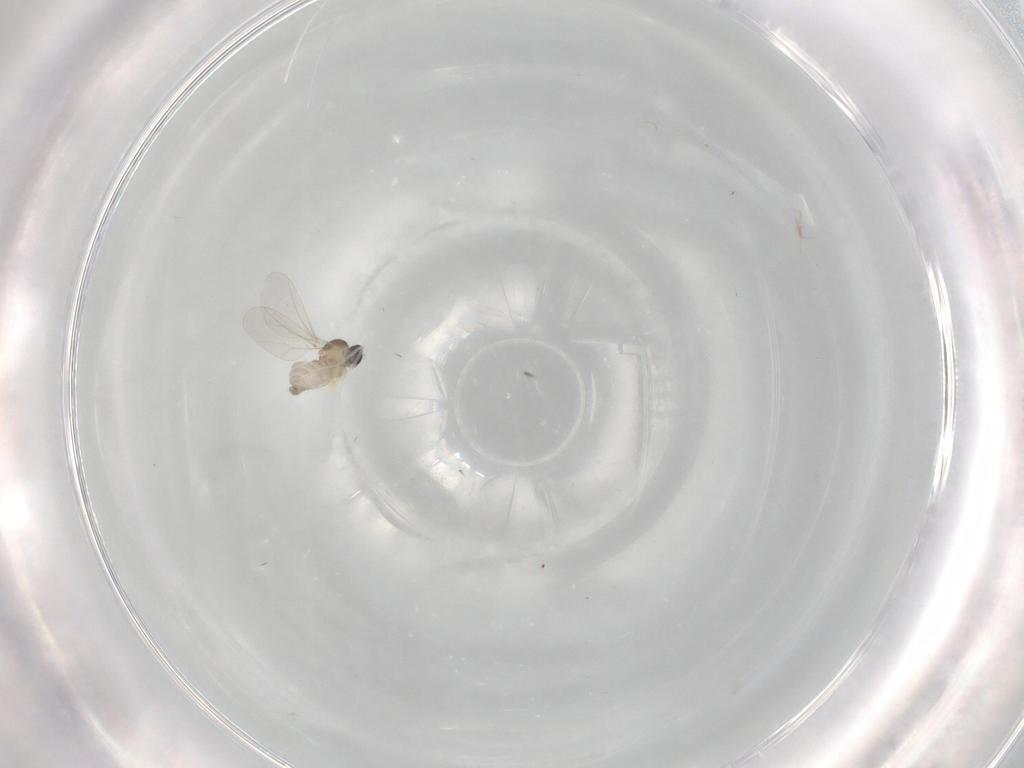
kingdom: Animalia
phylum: Arthropoda
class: Insecta
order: Diptera
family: Cecidomyiidae
